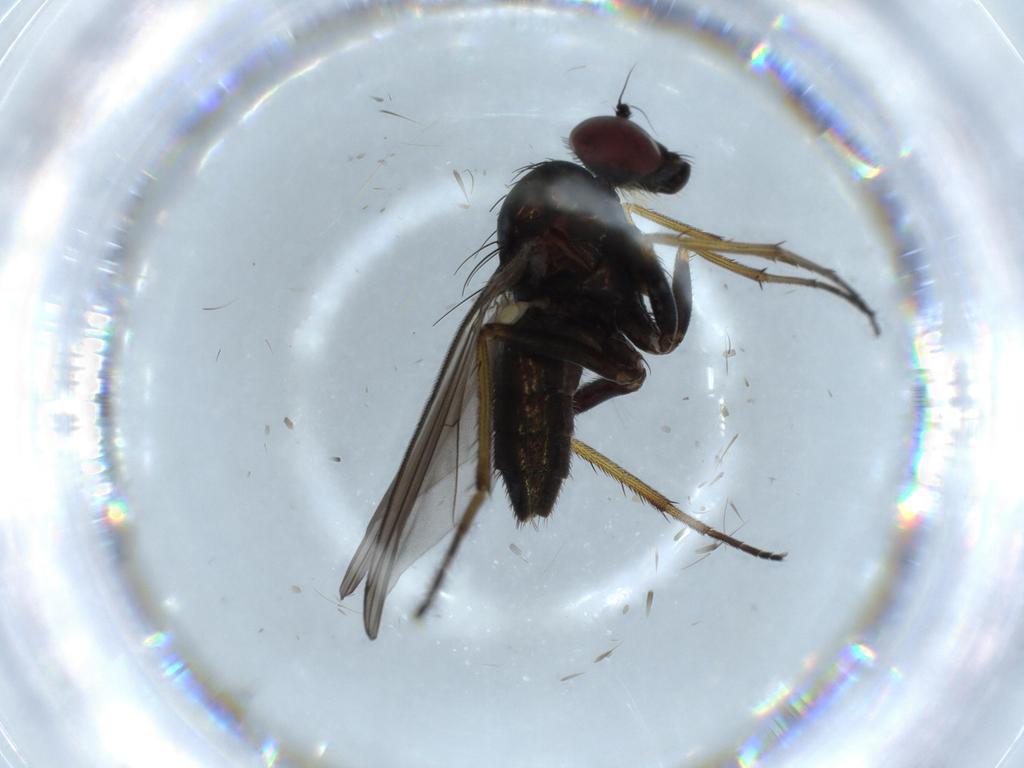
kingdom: Animalia
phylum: Arthropoda
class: Insecta
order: Diptera
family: Dolichopodidae
